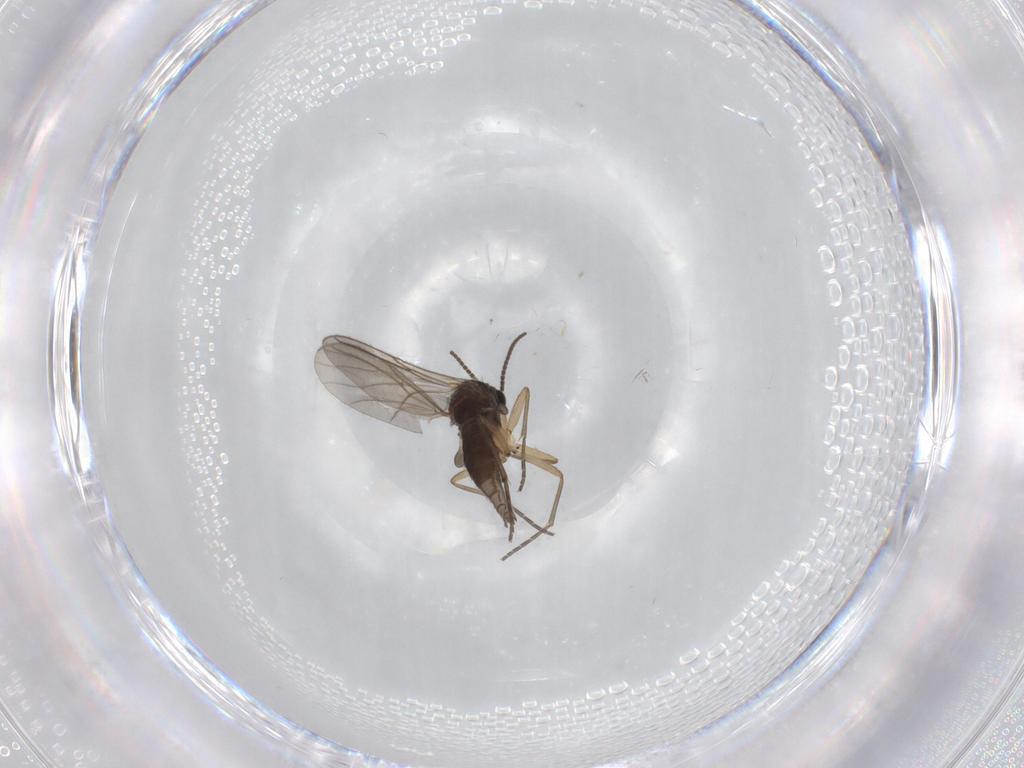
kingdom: Animalia
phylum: Arthropoda
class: Insecta
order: Diptera
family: Sciaridae
